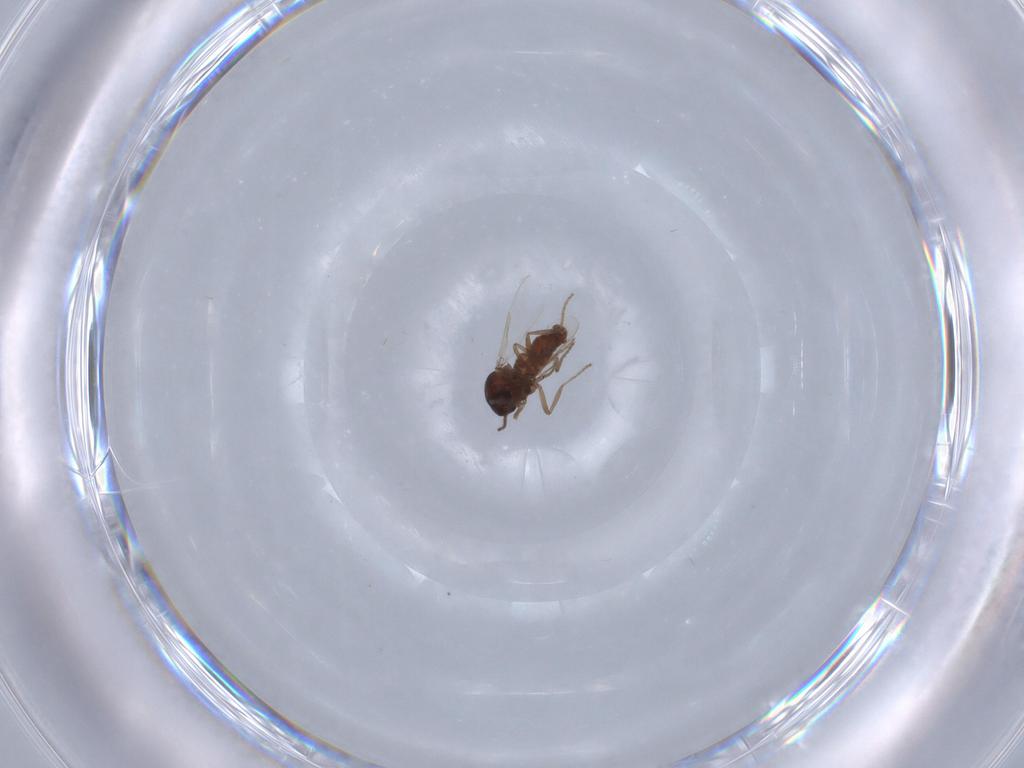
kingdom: Animalia
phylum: Arthropoda
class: Insecta
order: Diptera
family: Ceratopogonidae
